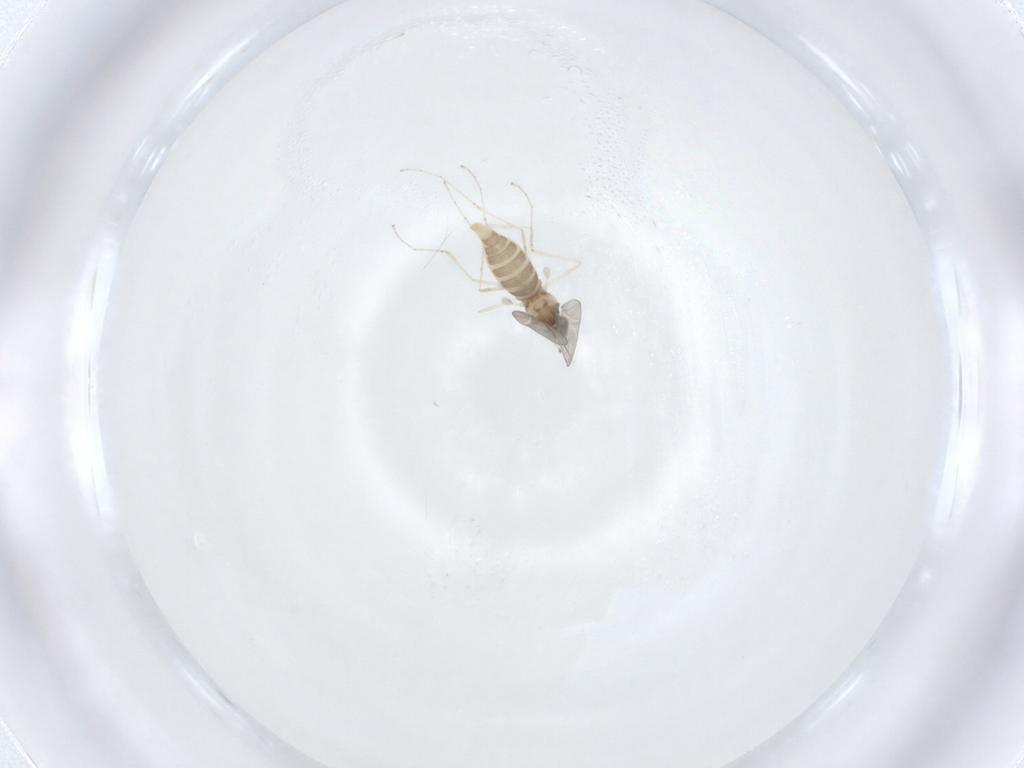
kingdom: Animalia
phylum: Arthropoda
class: Insecta
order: Diptera
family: Cecidomyiidae
